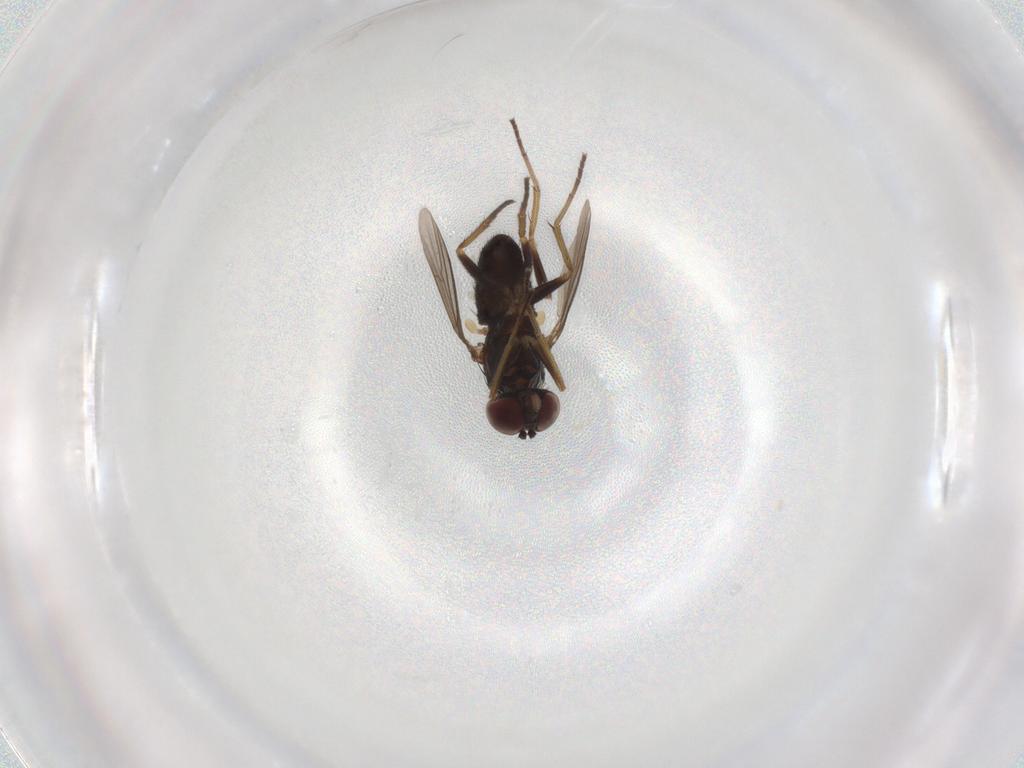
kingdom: Animalia
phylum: Arthropoda
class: Insecta
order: Diptera
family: Dolichopodidae
